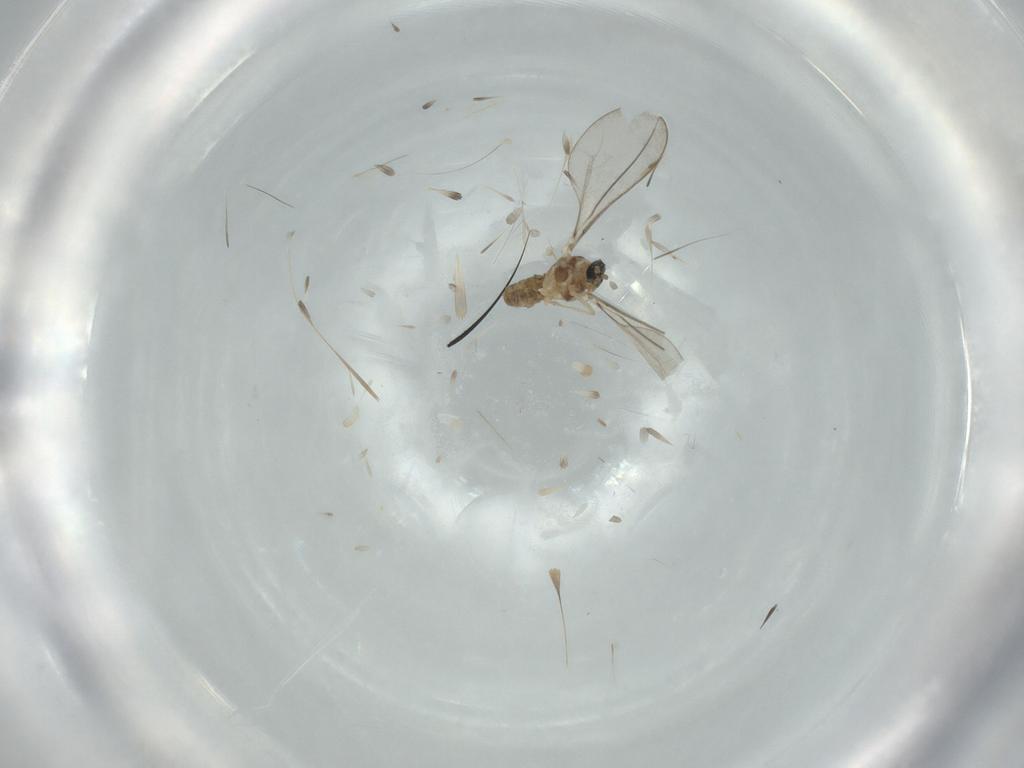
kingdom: Animalia
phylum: Arthropoda
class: Insecta
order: Diptera
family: Cecidomyiidae
